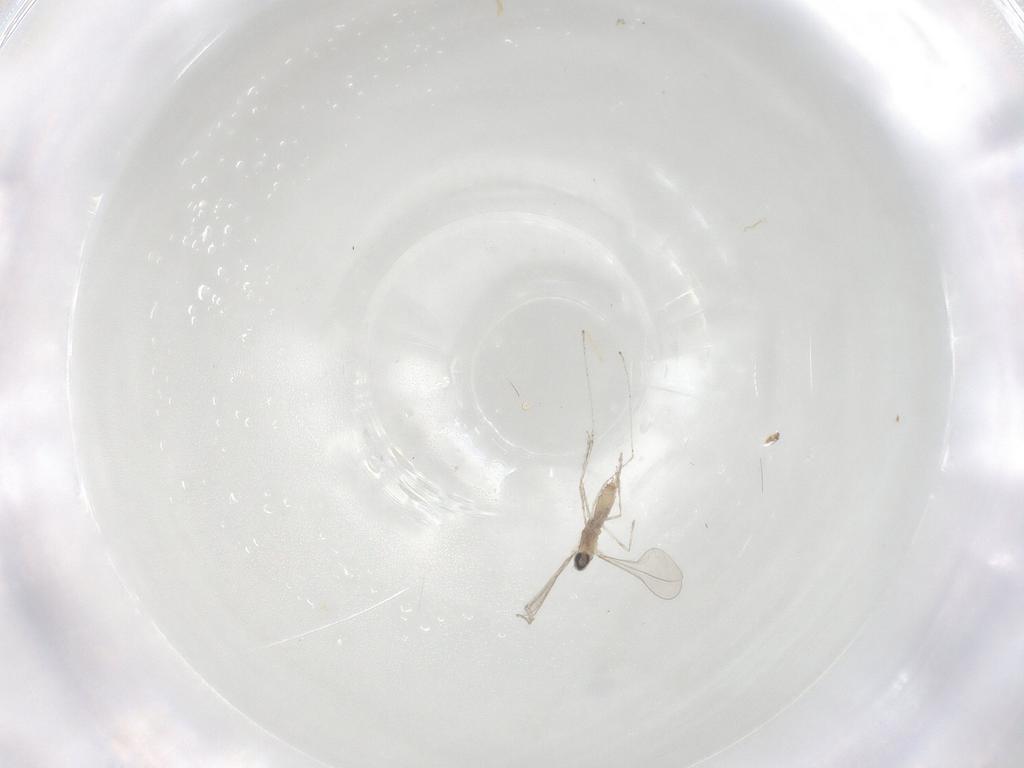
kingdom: Animalia
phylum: Arthropoda
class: Insecta
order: Diptera
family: Cecidomyiidae
